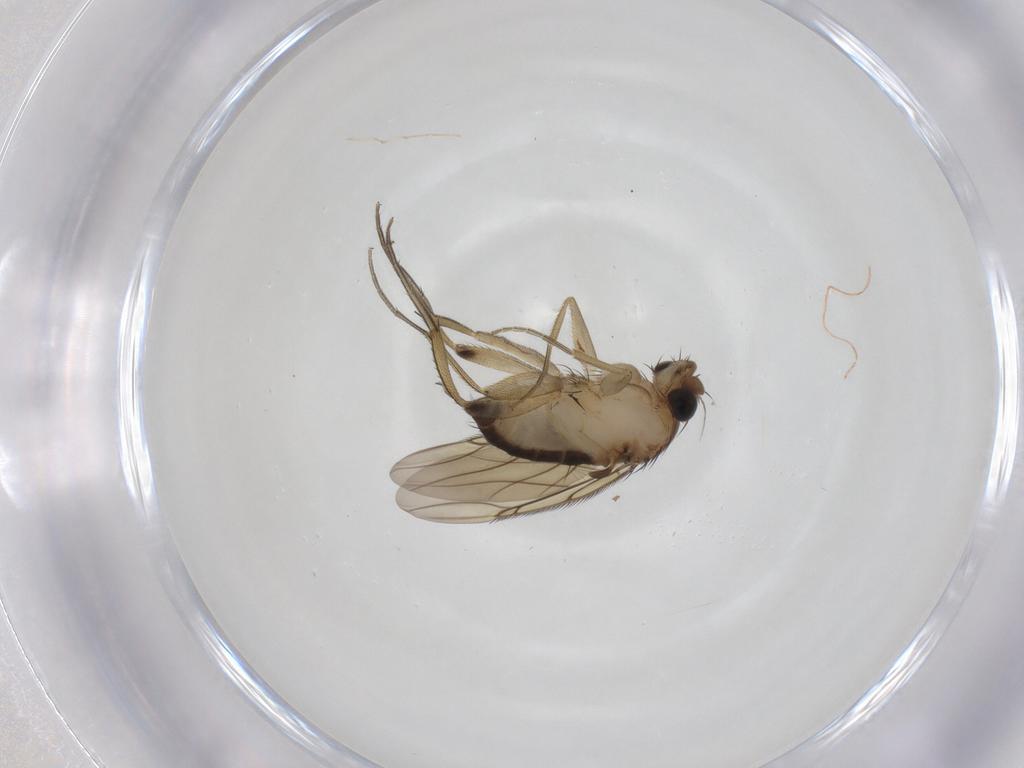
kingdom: Animalia
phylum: Arthropoda
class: Insecta
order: Diptera
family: Phoridae
